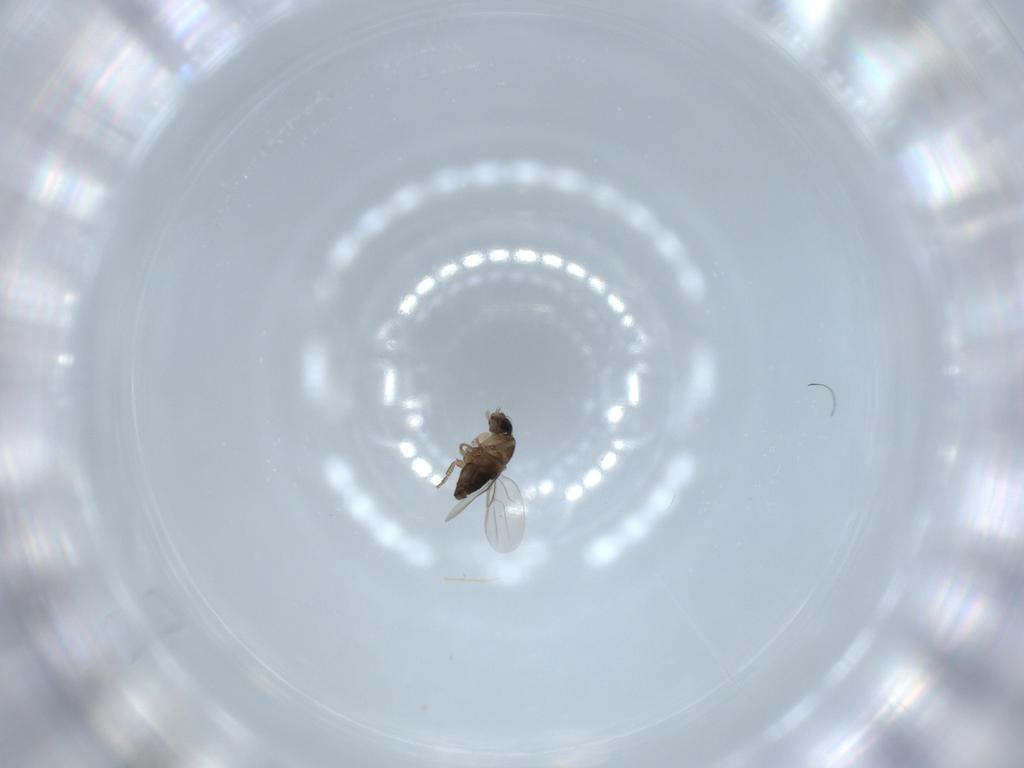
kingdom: Animalia
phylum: Arthropoda
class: Insecta
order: Diptera
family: Phoridae
